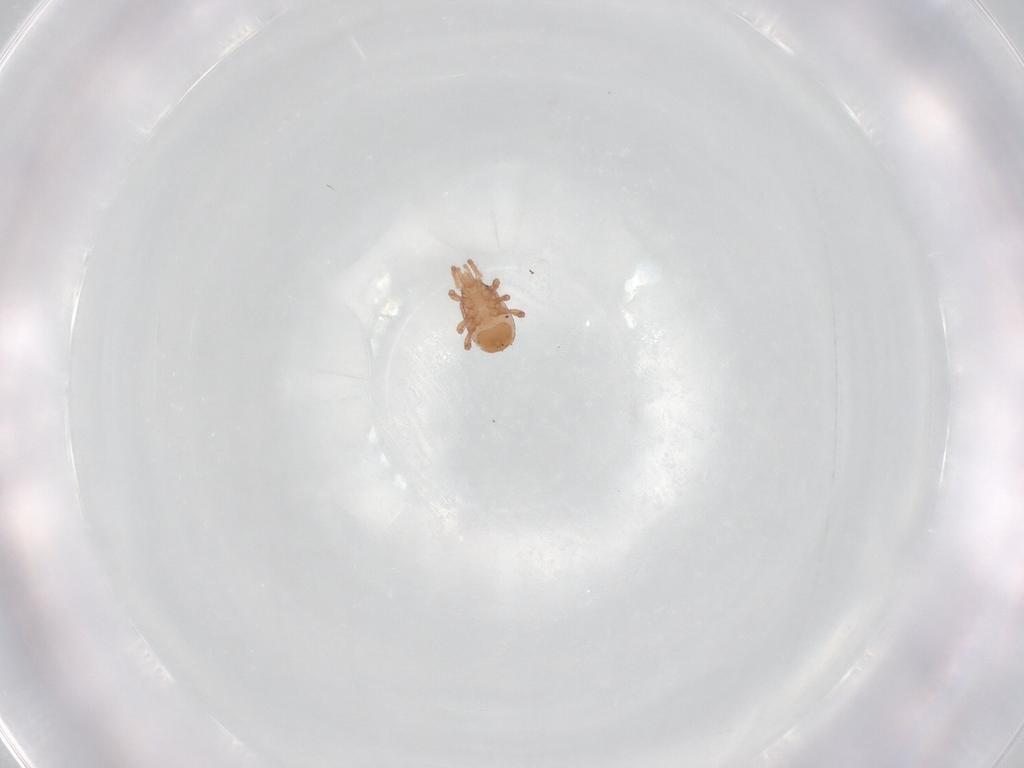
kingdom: Animalia
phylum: Arthropoda
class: Arachnida
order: Sarcoptiformes
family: Tectocepheidae
